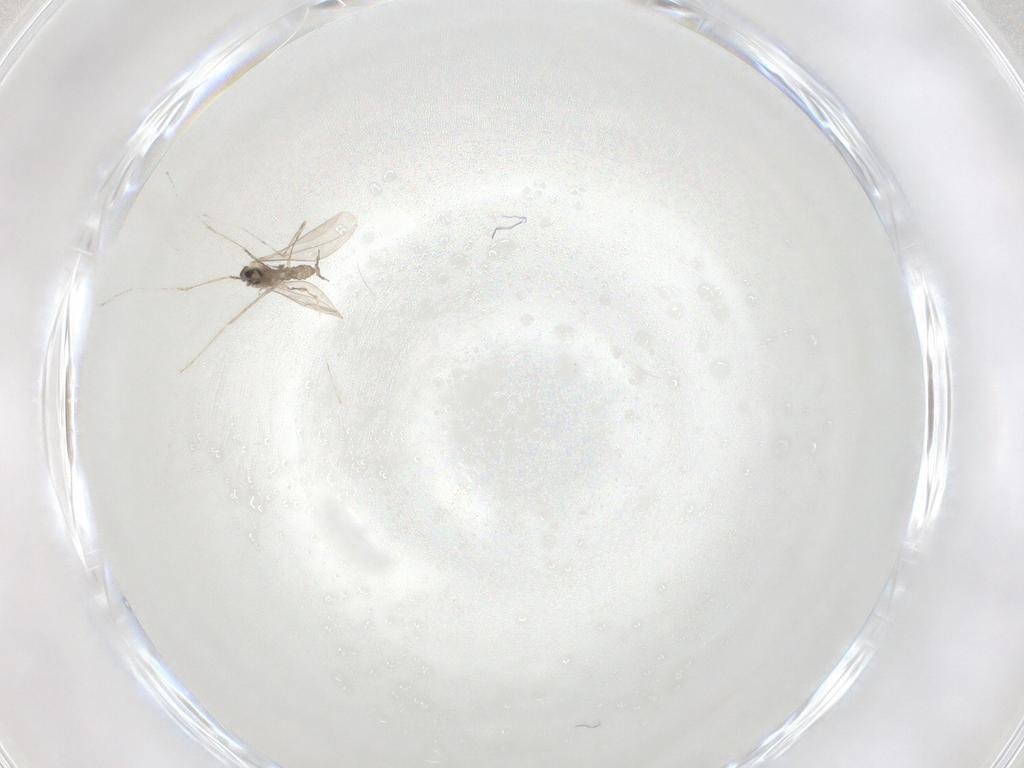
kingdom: Animalia
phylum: Arthropoda
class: Insecta
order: Diptera
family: Cecidomyiidae
